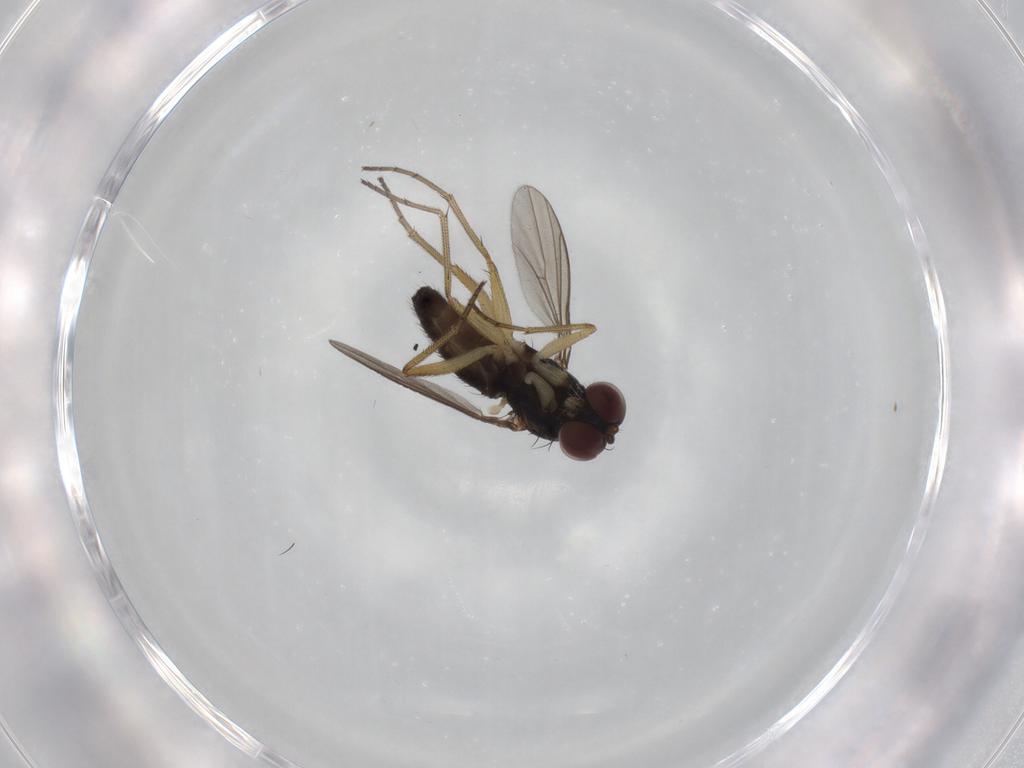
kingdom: Animalia
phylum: Arthropoda
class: Insecta
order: Diptera
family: Dolichopodidae
